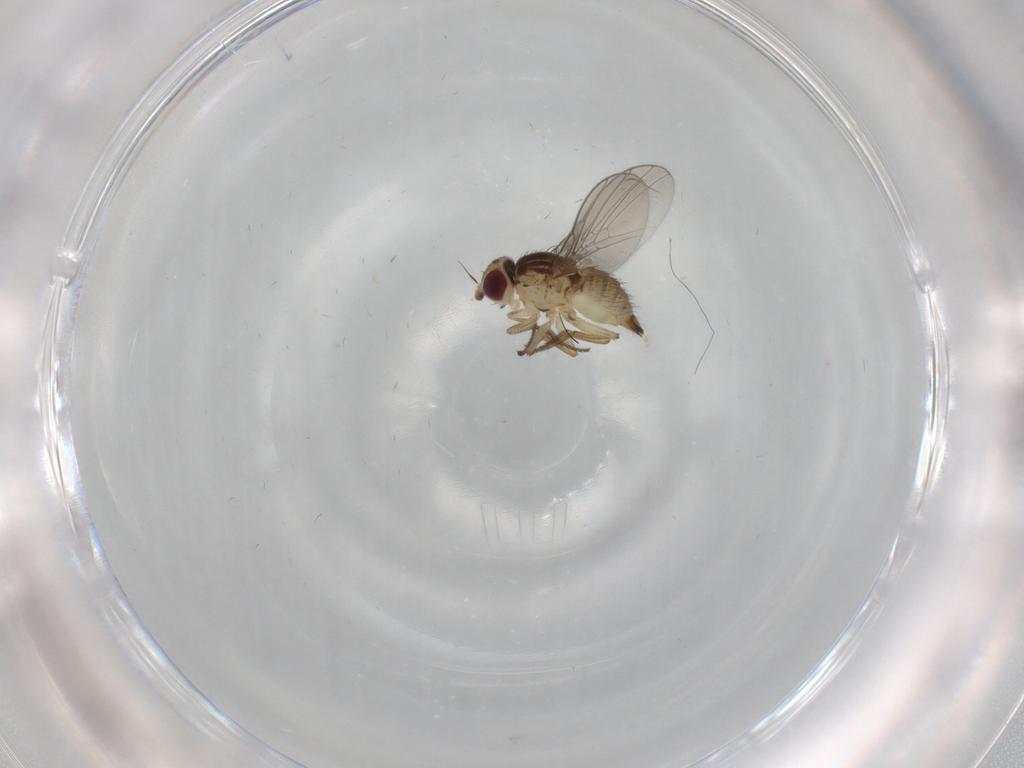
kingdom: Animalia
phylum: Arthropoda
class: Insecta
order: Diptera
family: Agromyzidae
